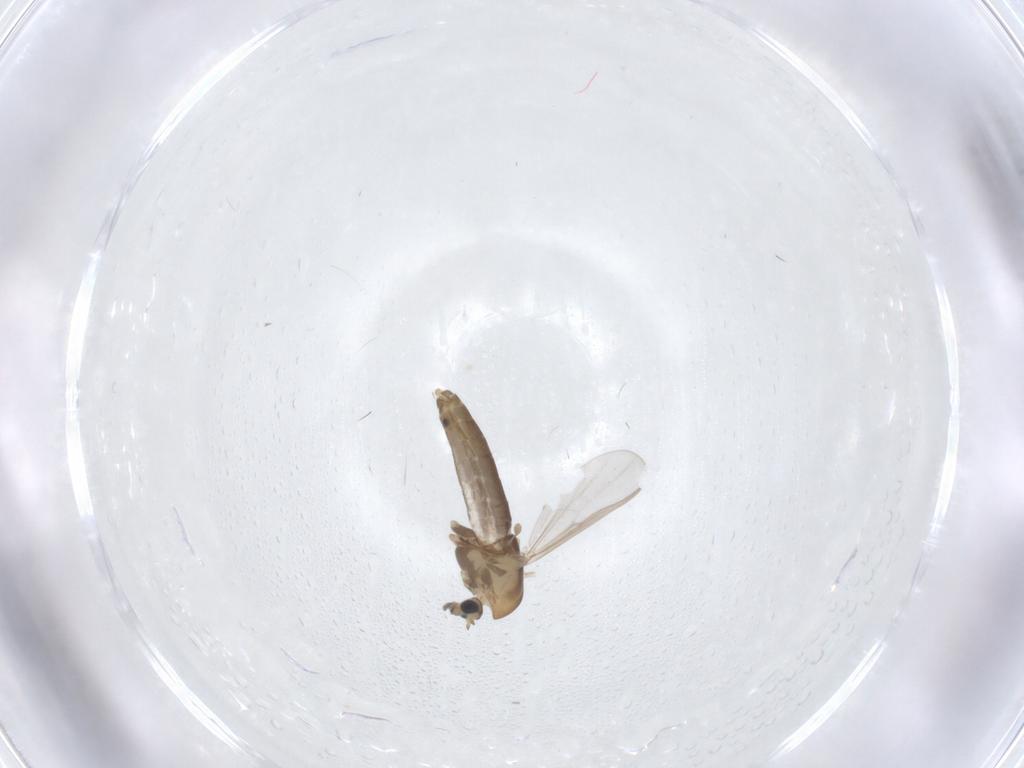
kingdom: Animalia
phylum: Arthropoda
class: Insecta
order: Diptera
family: Chironomidae
